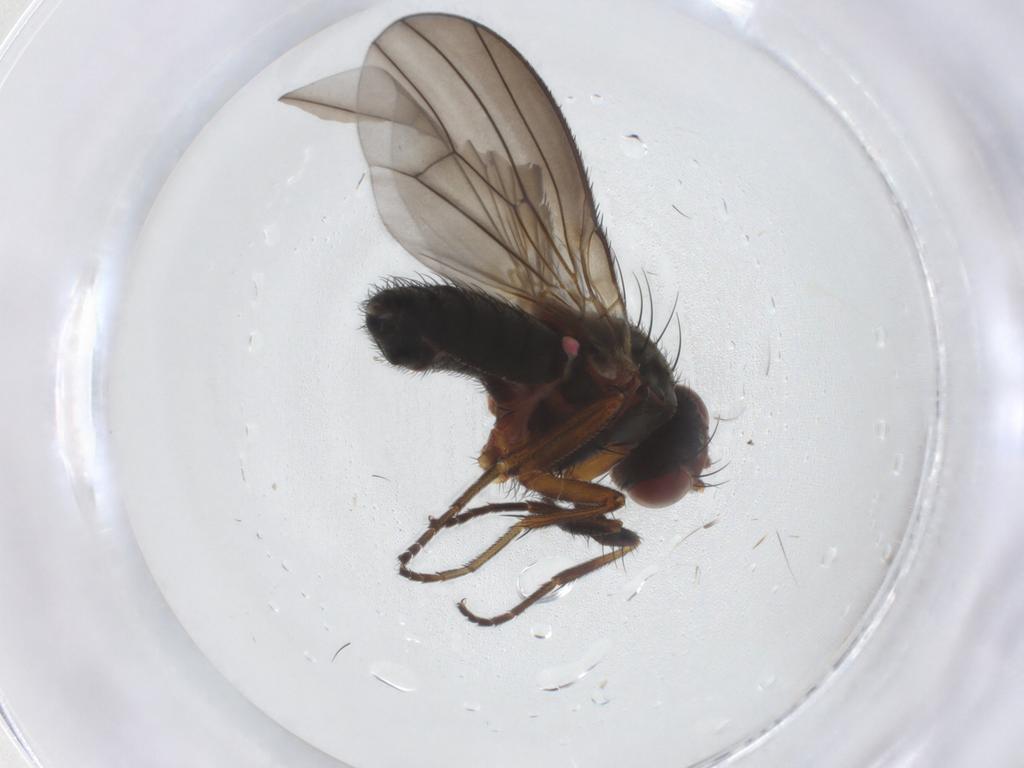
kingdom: Animalia
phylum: Arthropoda
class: Insecta
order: Diptera
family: Heleomyzidae
